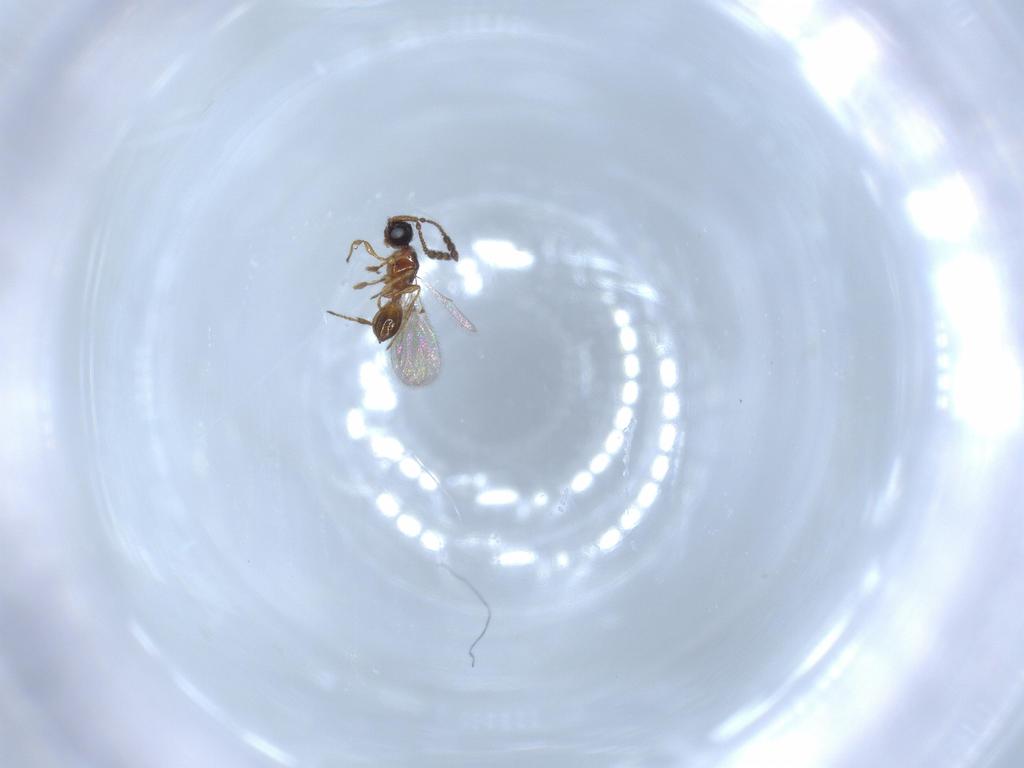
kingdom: Animalia
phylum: Arthropoda
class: Insecta
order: Hymenoptera
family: Diapriidae
